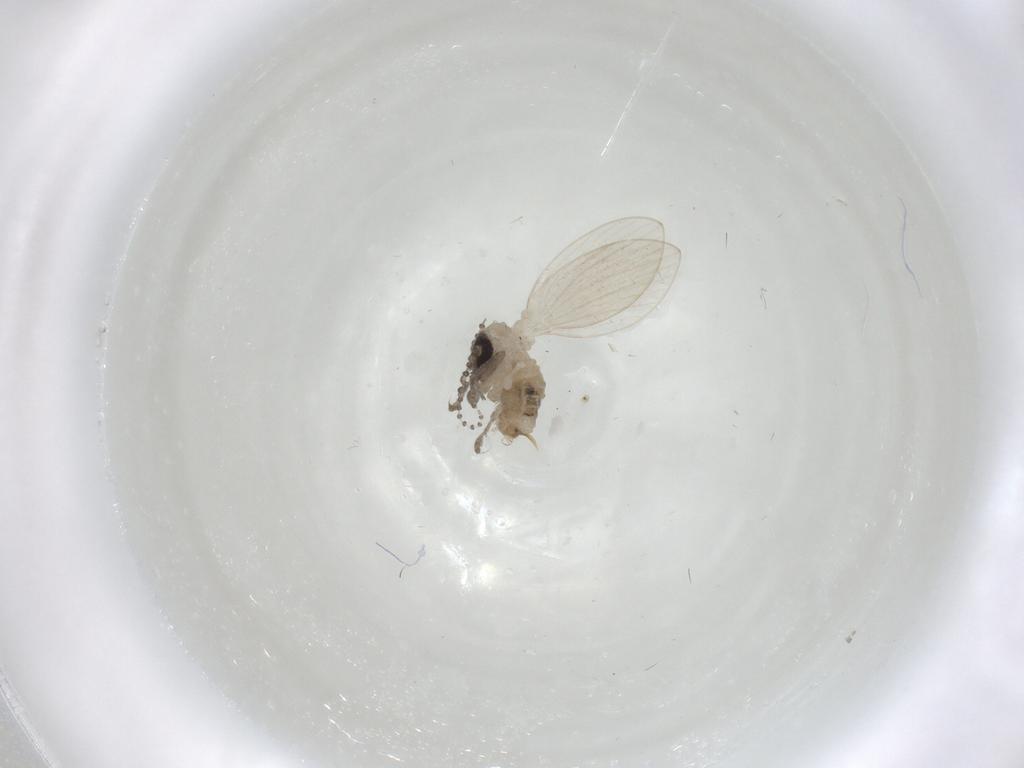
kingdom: Animalia
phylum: Arthropoda
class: Insecta
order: Diptera
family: Psychodidae
